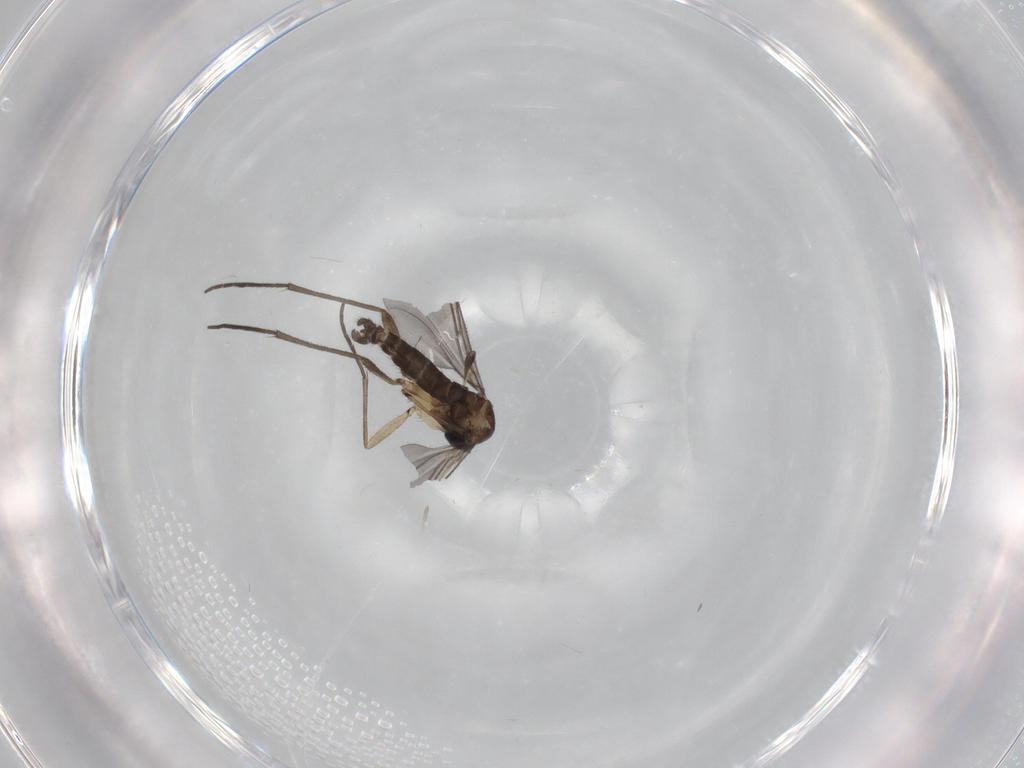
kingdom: Animalia
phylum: Arthropoda
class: Insecta
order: Diptera
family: Sciaridae
